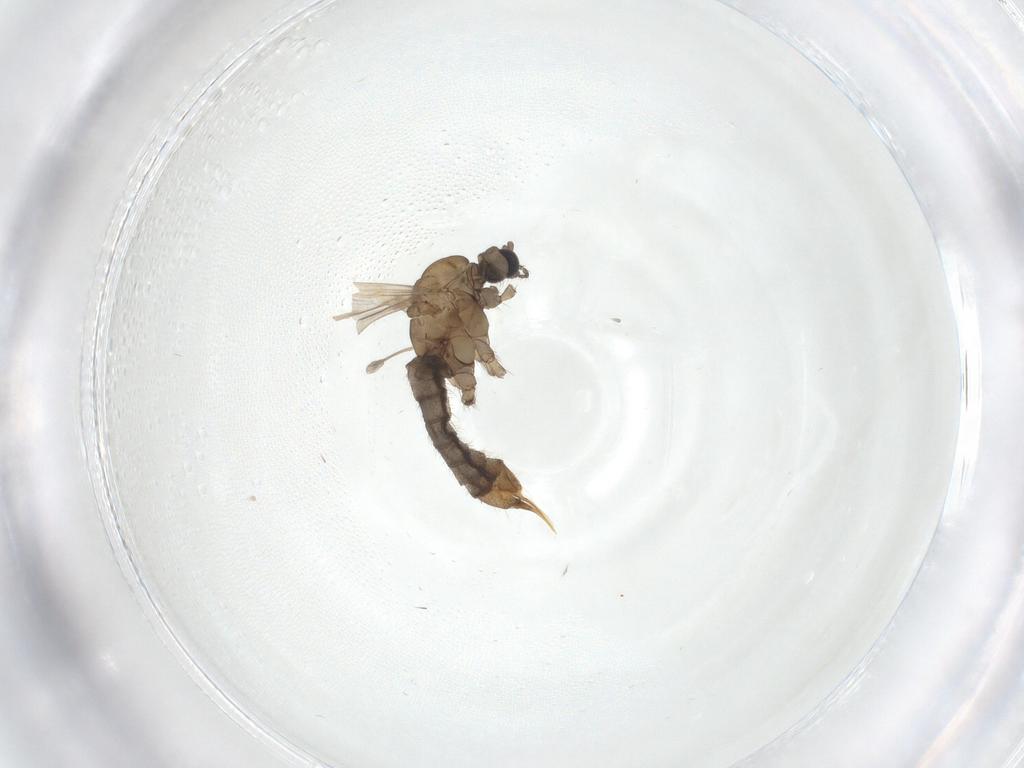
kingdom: Animalia
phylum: Arthropoda
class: Insecta
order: Diptera
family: Limoniidae
